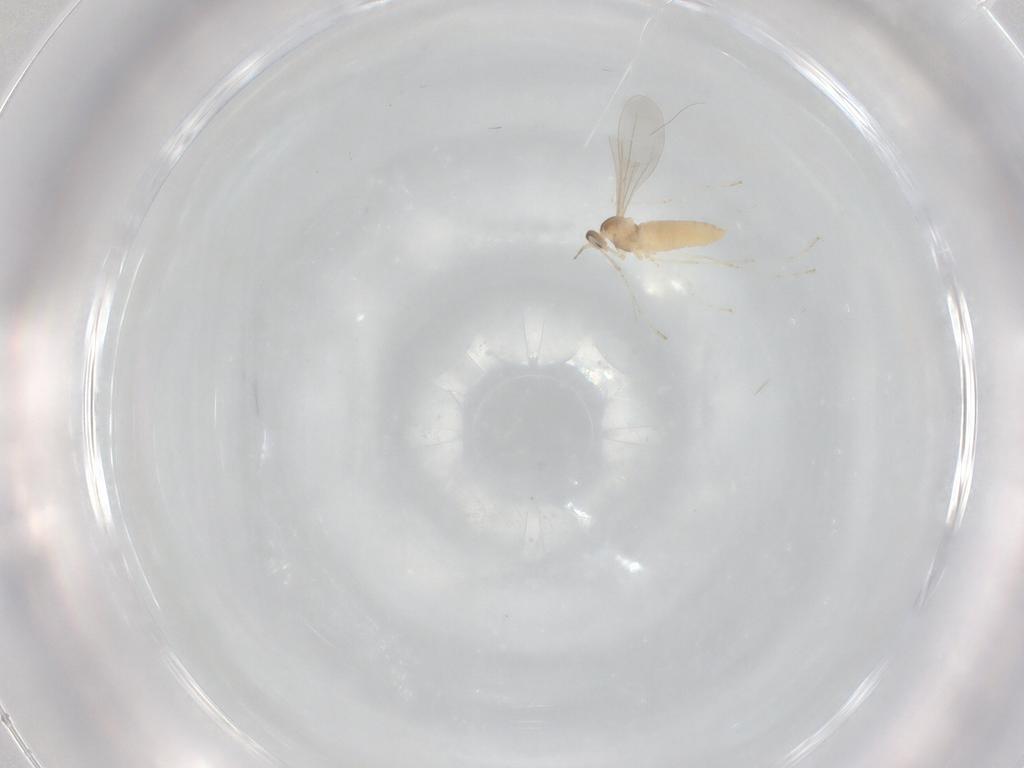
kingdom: Animalia
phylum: Arthropoda
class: Insecta
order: Diptera
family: Cecidomyiidae
